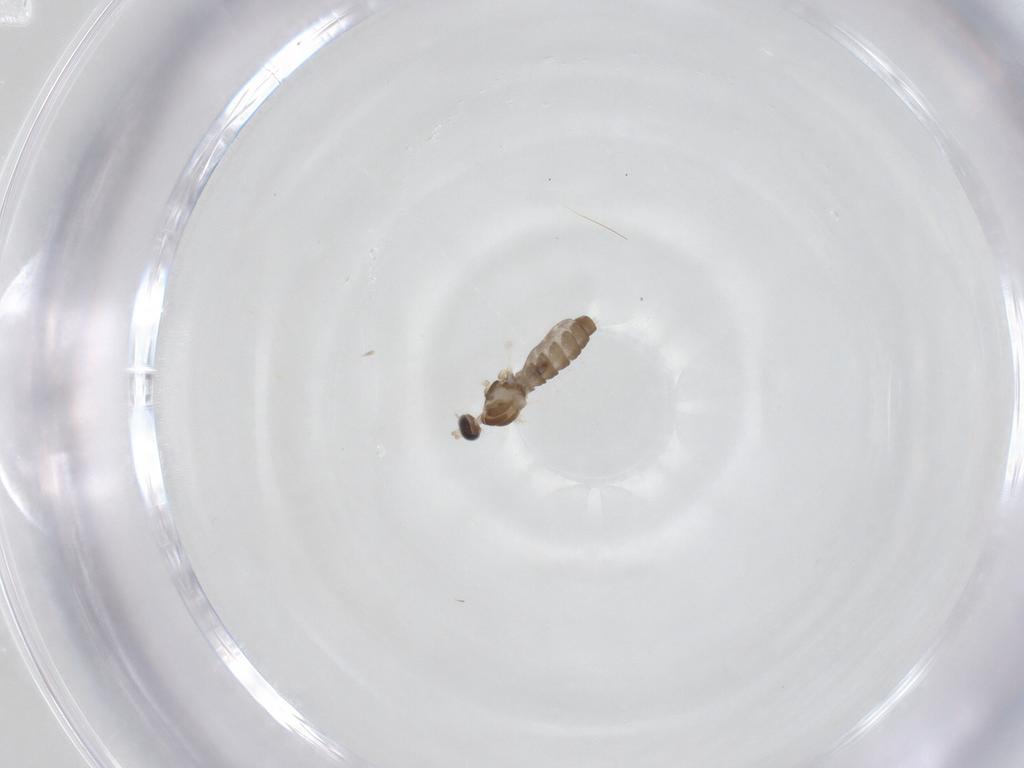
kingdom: Animalia
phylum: Arthropoda
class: Insecta
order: Diptera
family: Cecidomyiidae
